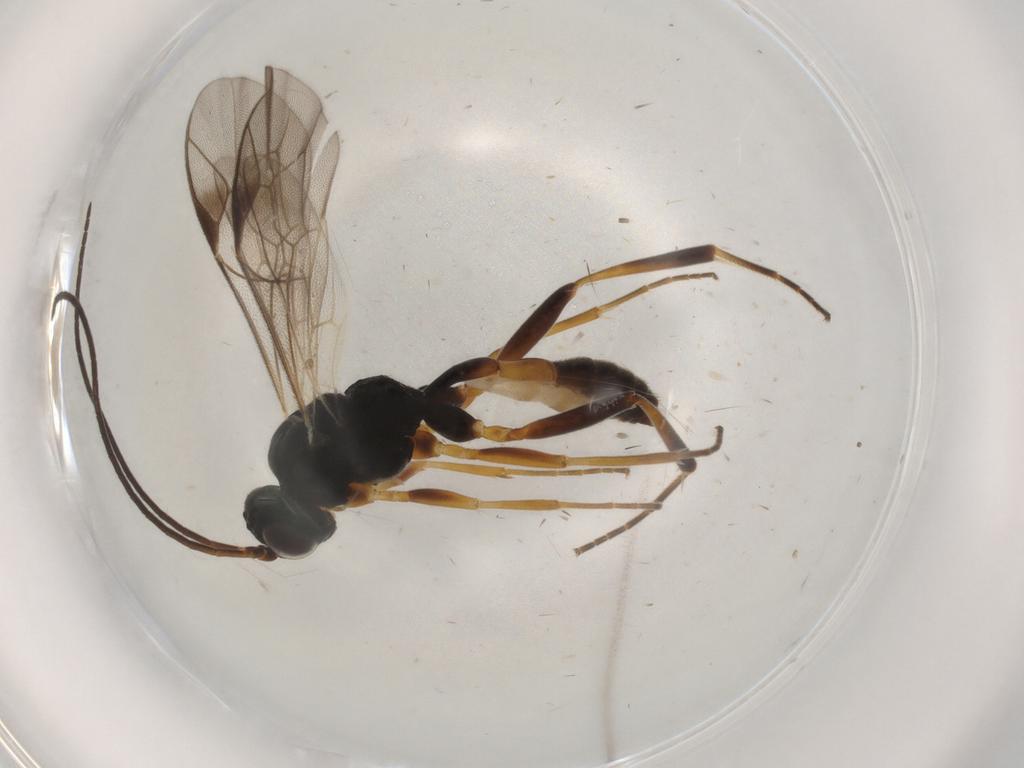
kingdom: Animalia
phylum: Arthropoda
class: Insecta
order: Hymenoptera
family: Ichneumonidae
